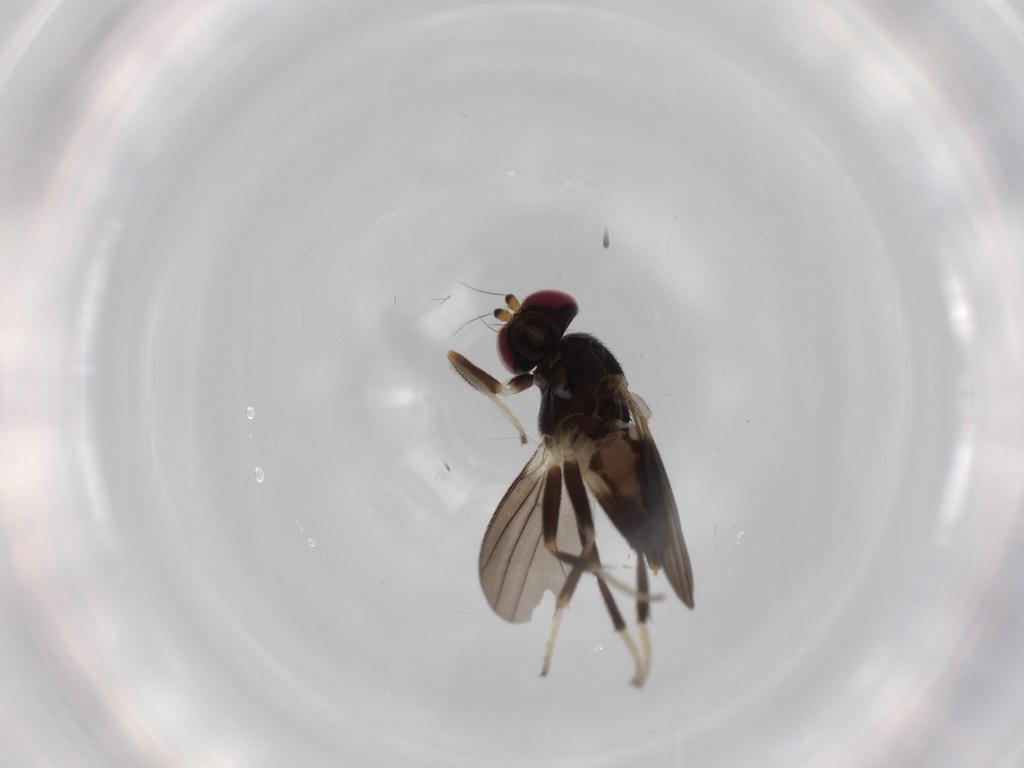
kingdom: Animalia
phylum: Arthropoda
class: Insecta
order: Diptera
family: Clusiidae
